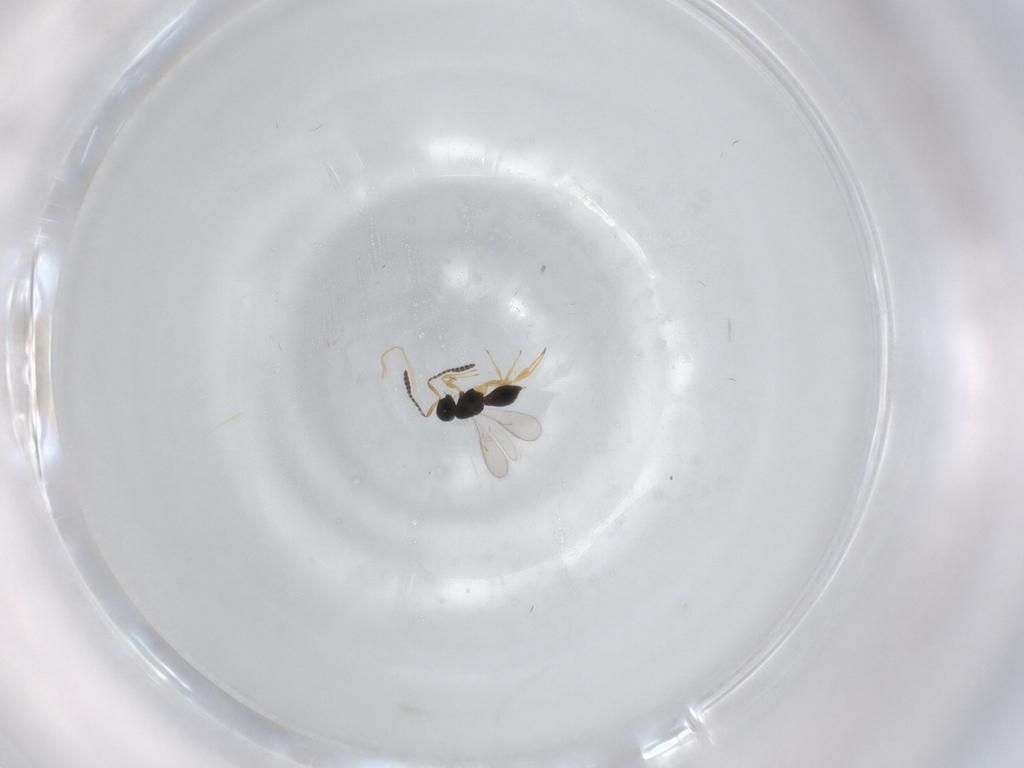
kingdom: Animalia
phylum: Arthropoda
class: Insecta
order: Hymenoptera
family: Scelionidae
